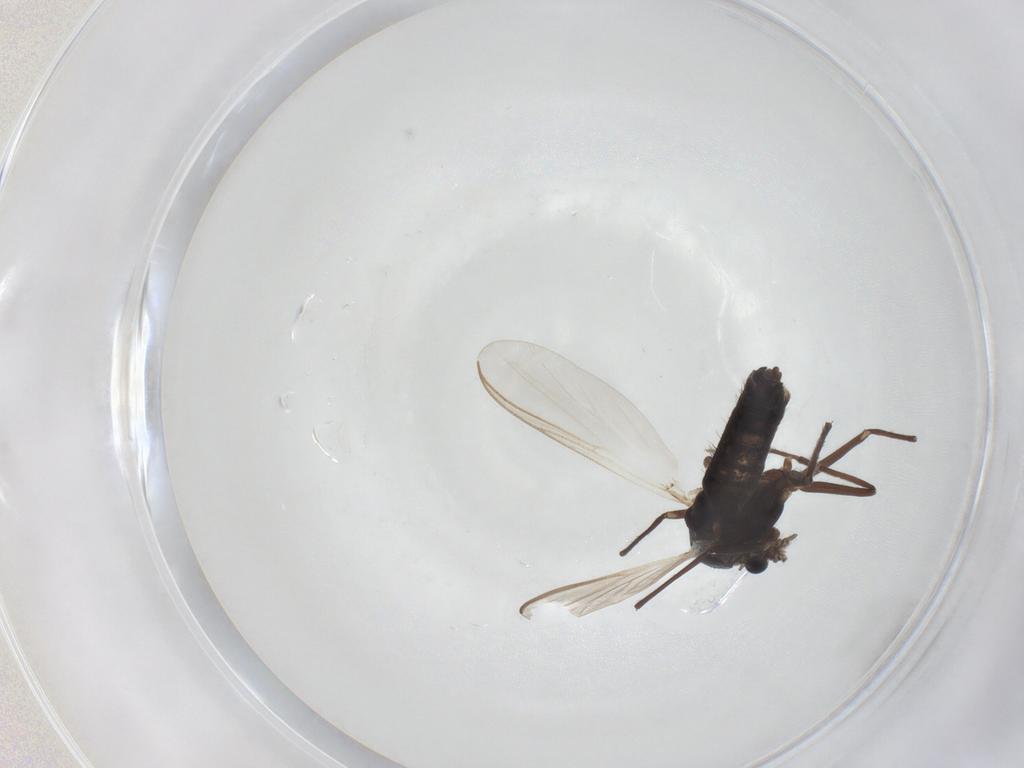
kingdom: Animalia
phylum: Arthropoda
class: Insecta
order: Diptera
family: Chironomidae
